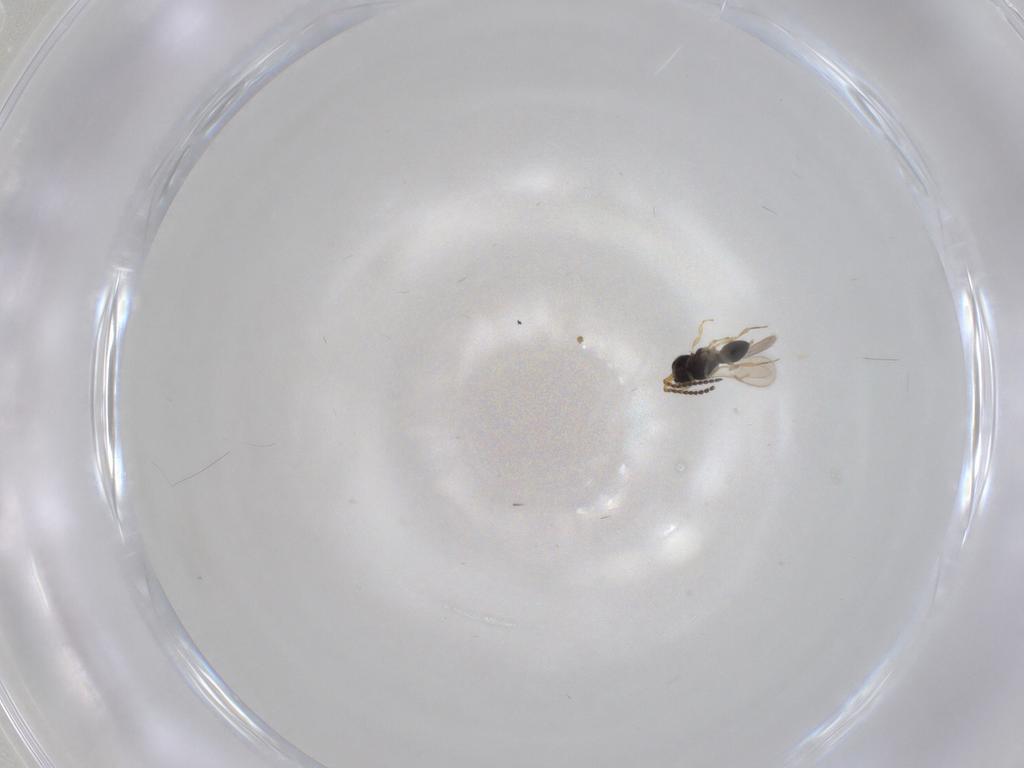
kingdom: Animalia
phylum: Arthropoda
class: Insecta
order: Hymenoptera
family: Scelionidae
